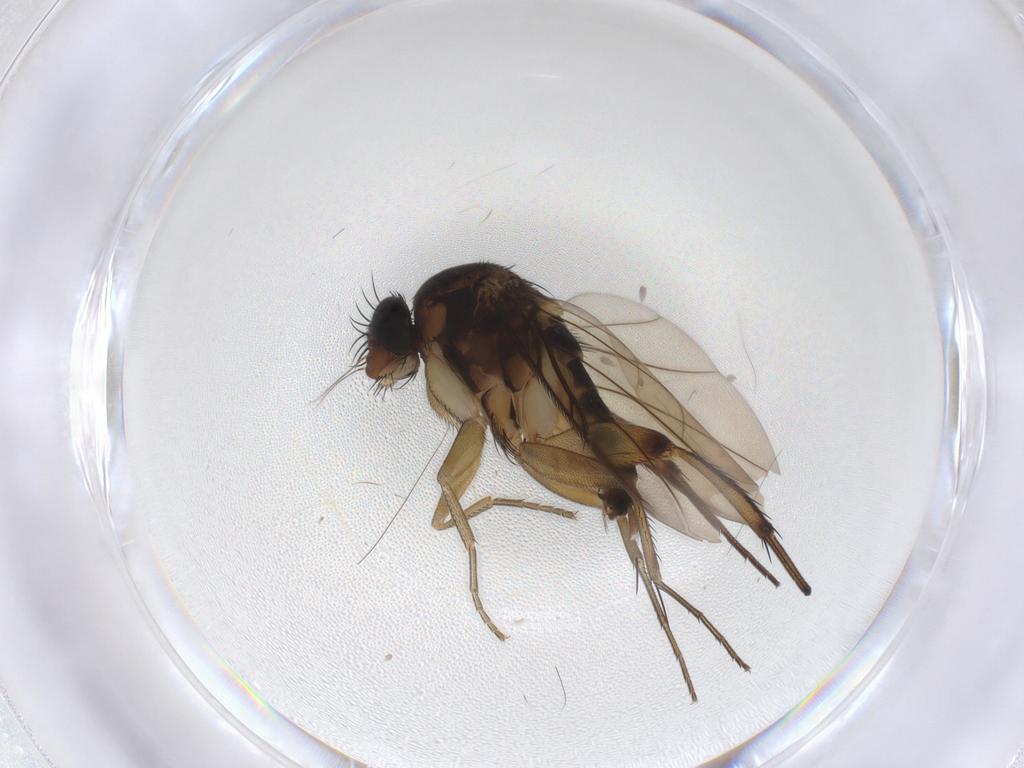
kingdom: Animalia
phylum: Arthropoda
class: Insecta
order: Diptera
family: Phoridae
